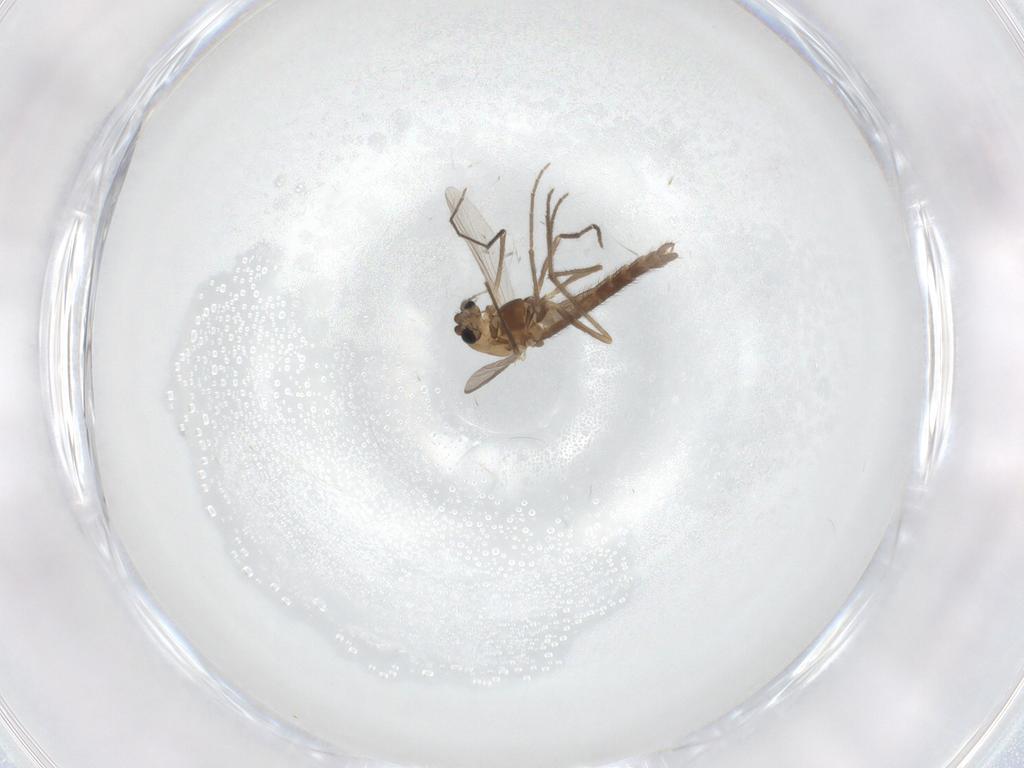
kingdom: Animalia
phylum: Arthropoda
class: Insecta
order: Diptera
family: Chironomidae
